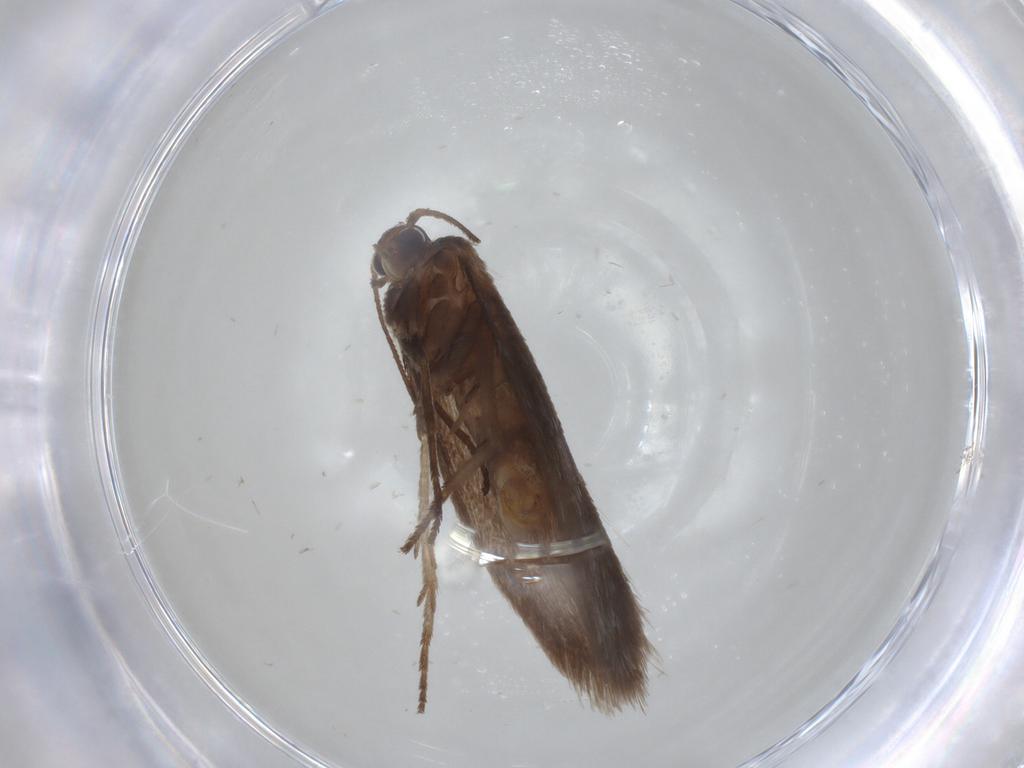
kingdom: Animalia
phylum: Arthropoda
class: Insecta
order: Lepidoptera
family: Limacodidae
